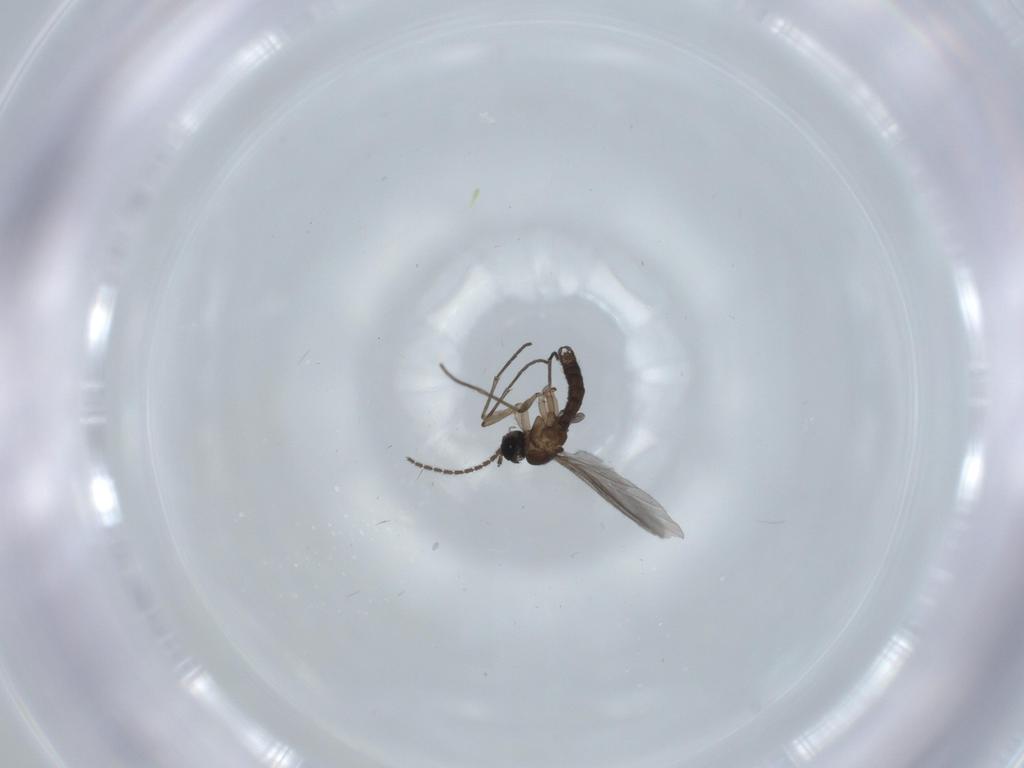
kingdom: Animalia
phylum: Arthropoda
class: Insecta
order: Diptera
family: Sciaridae
